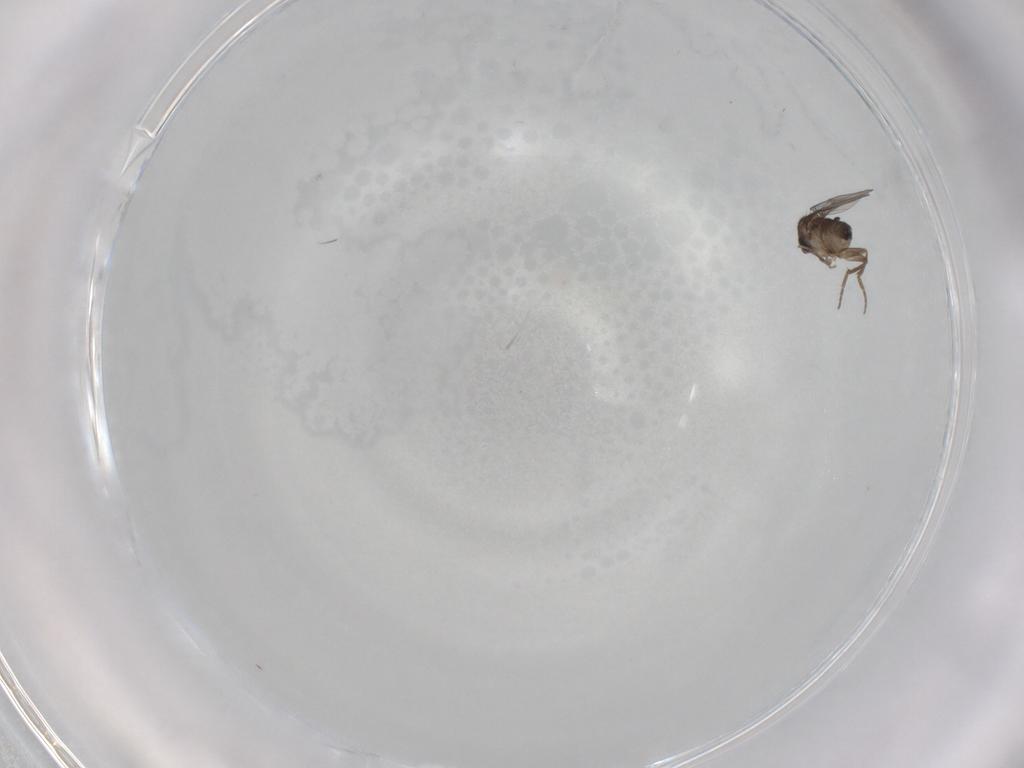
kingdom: Animalia
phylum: Arthropoda
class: Insecta
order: Diptera
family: Phoridae
